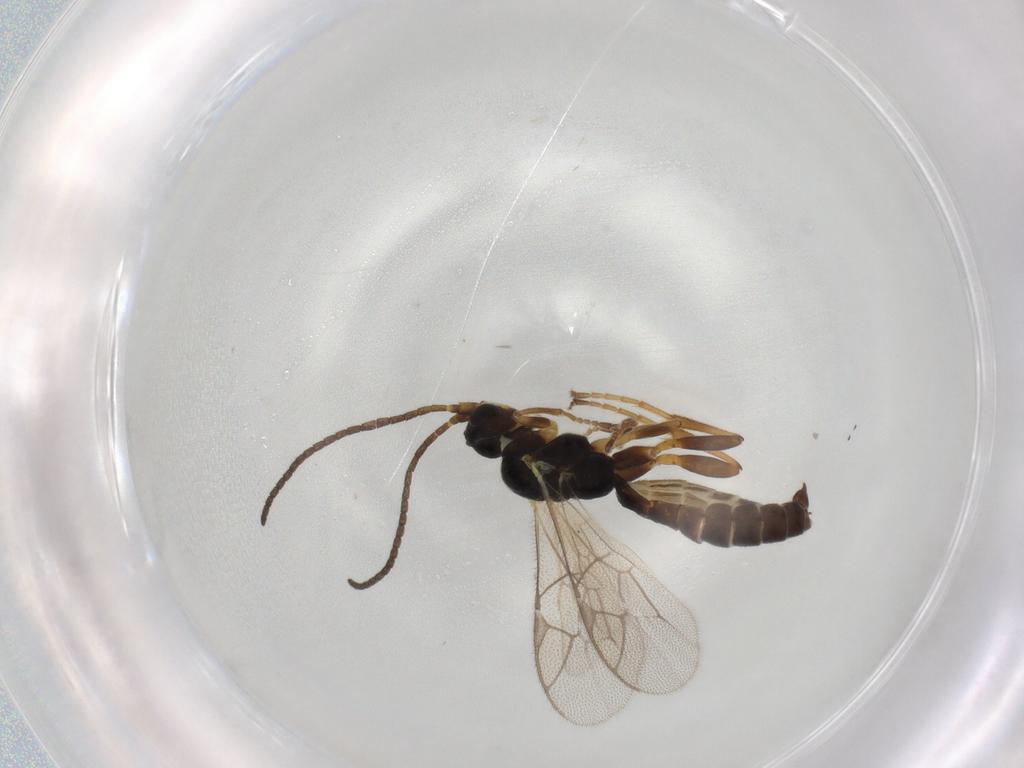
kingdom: Animalia
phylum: Arthropoda
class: Insecta
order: Hymenoptera
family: Ichneumonidae
